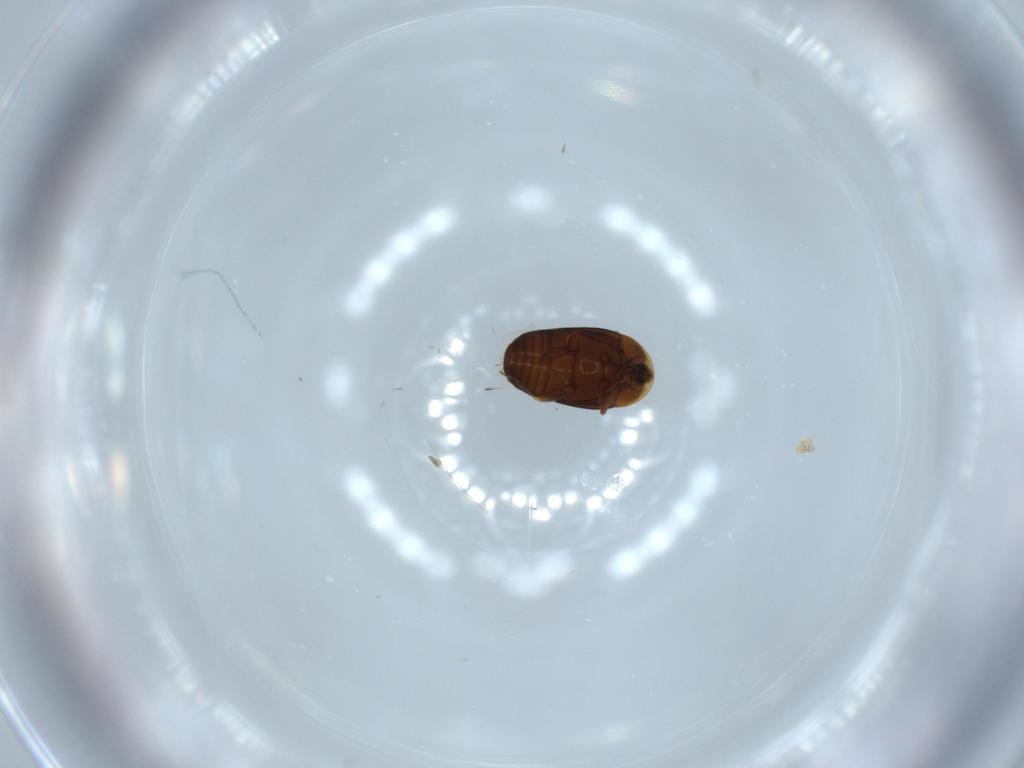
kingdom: Animalia
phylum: Arthropoda
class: Insecta
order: Coleoptera
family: Corylophidae
